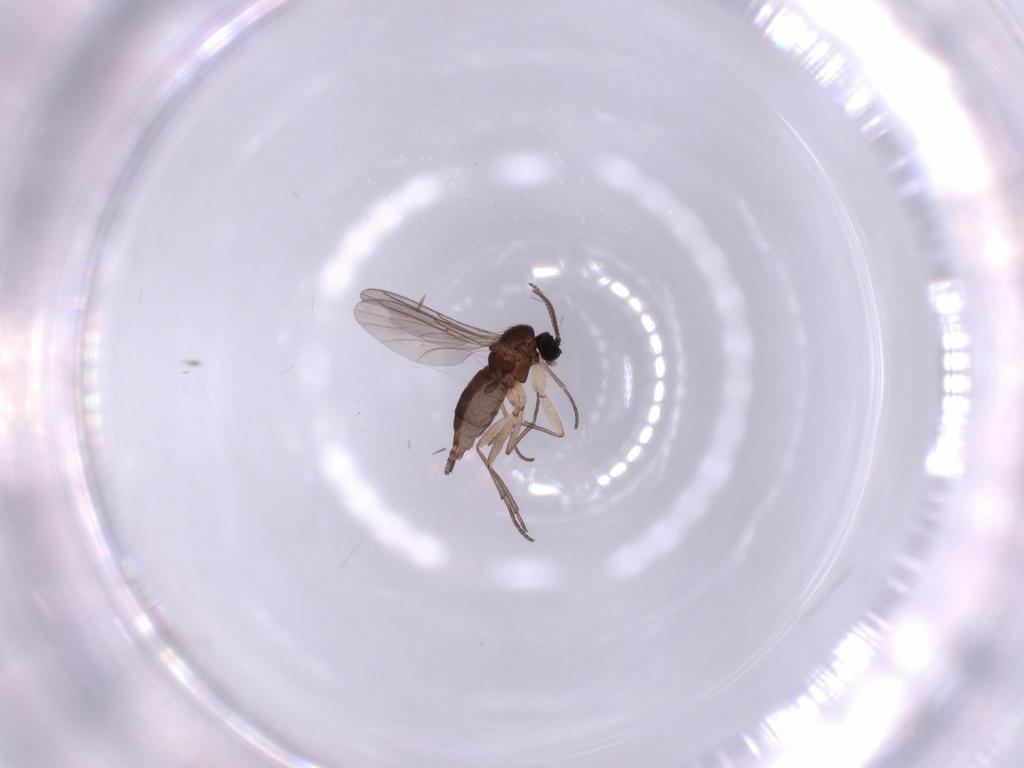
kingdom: Animalia
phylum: Arthropoda
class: Insecta
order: Diptera
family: Sciaridae
